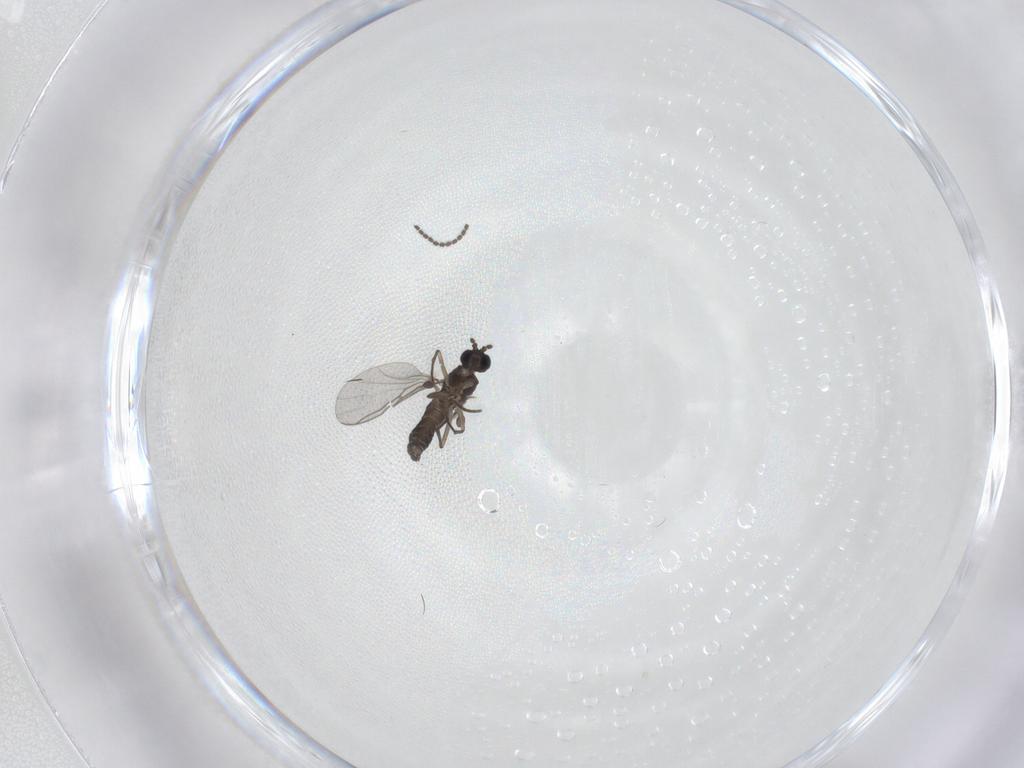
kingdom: Animalia
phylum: Arthropoda
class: Insecta
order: Diptera
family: Sciaridae
